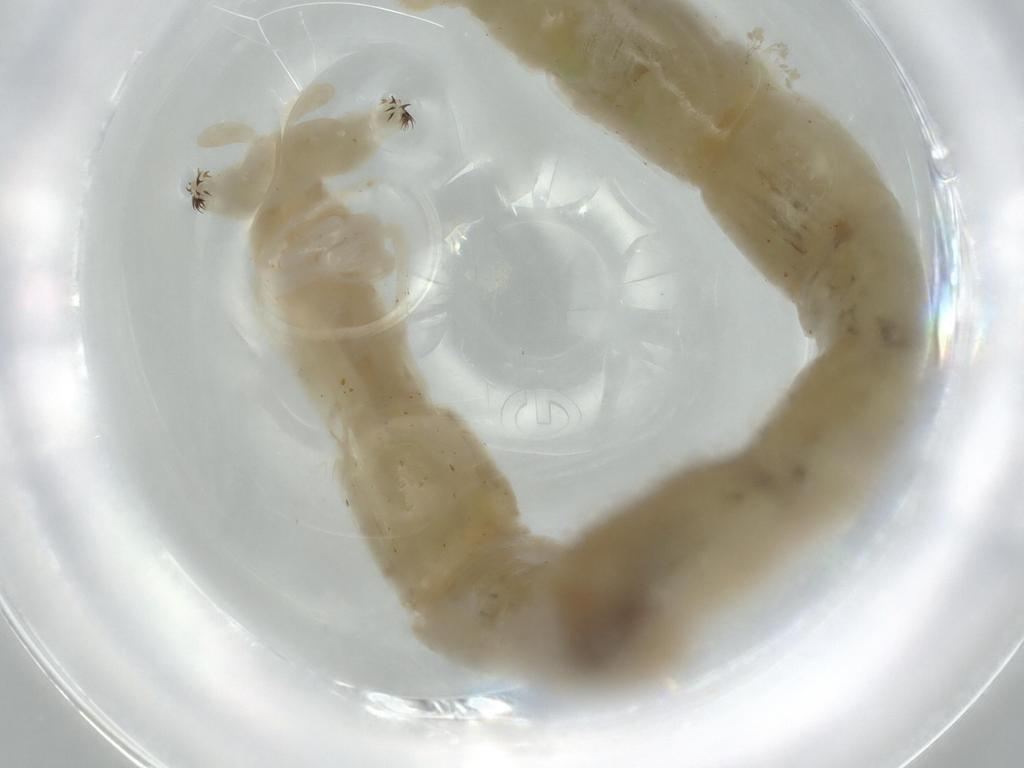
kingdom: Animalia
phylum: Arthropoda
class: Insecta
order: Diptera
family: Chironomidae
